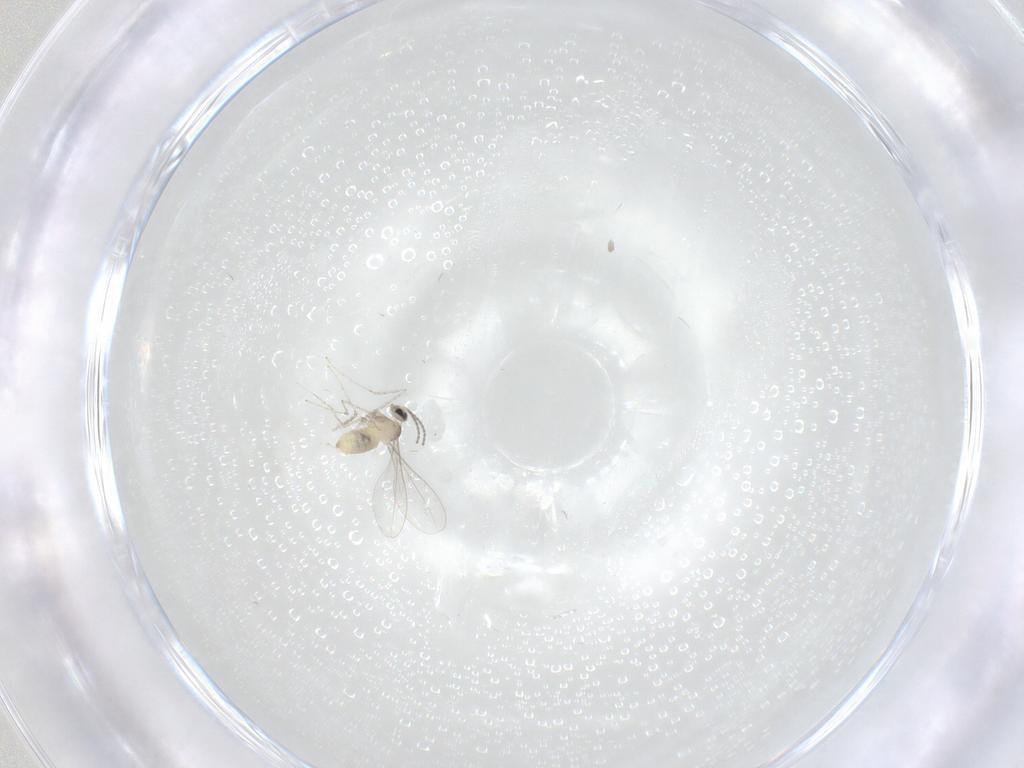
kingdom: Animalia
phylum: Arthropoda
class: Insecta
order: Diptera
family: Cecidomyiidae
